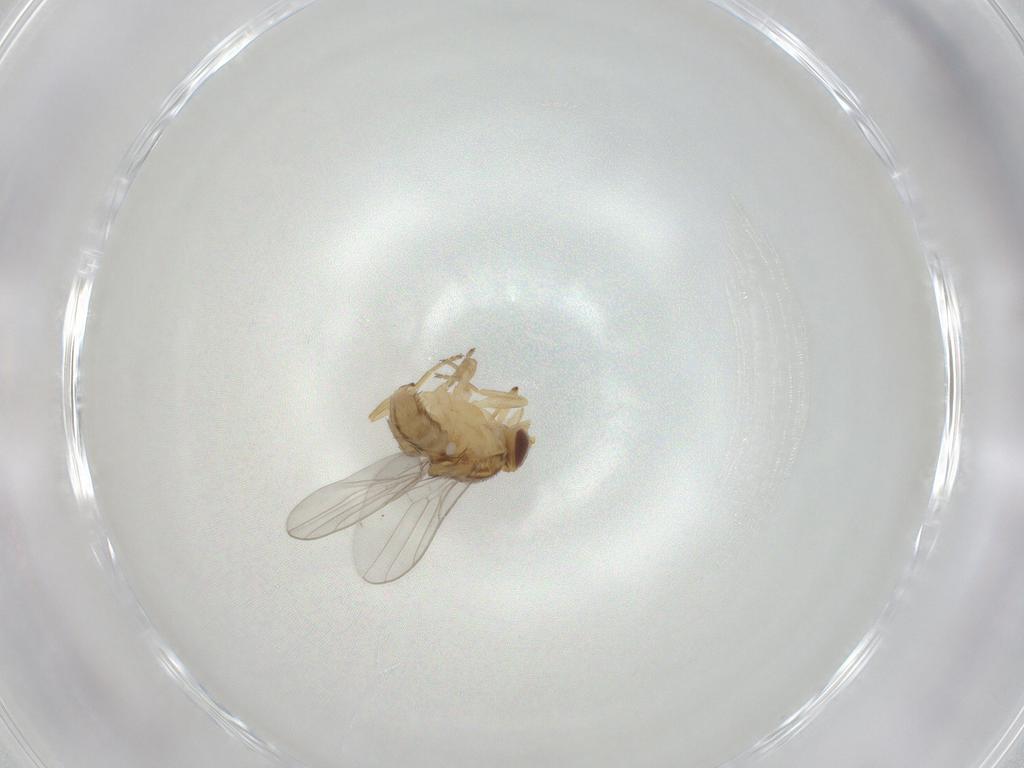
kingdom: Animalia
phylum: Arthropoda
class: Insecta
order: Diptera
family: Chloropidae
